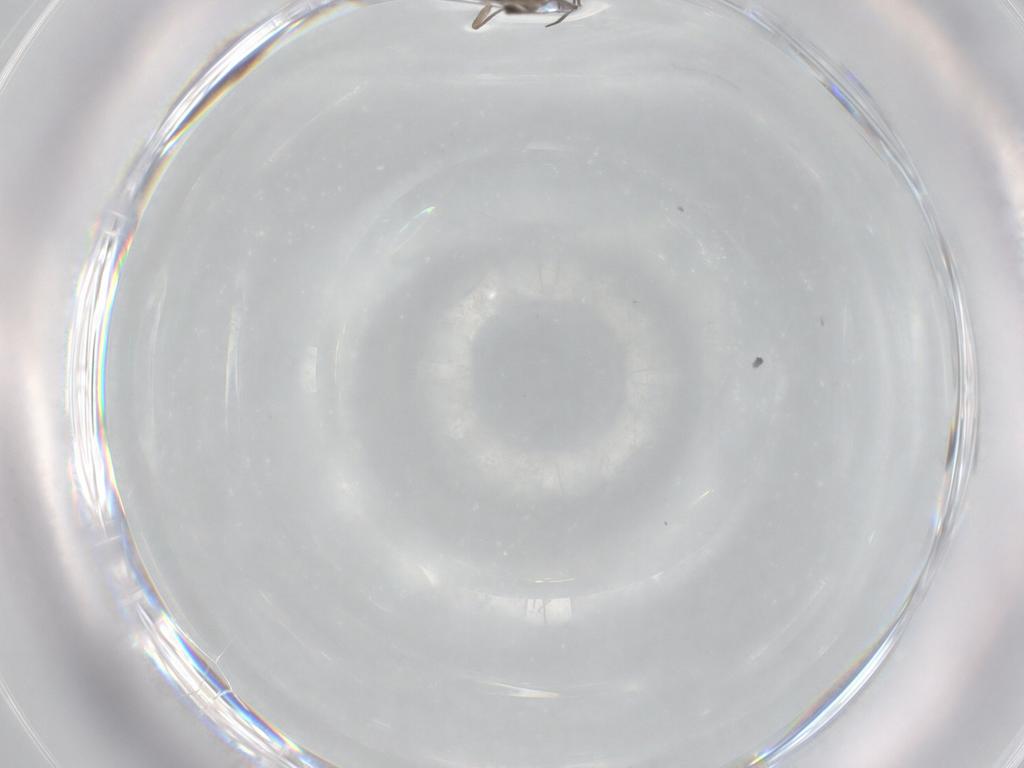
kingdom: Animalia
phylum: Arthropoda
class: Insecta
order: Diptera
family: Sciaridae
